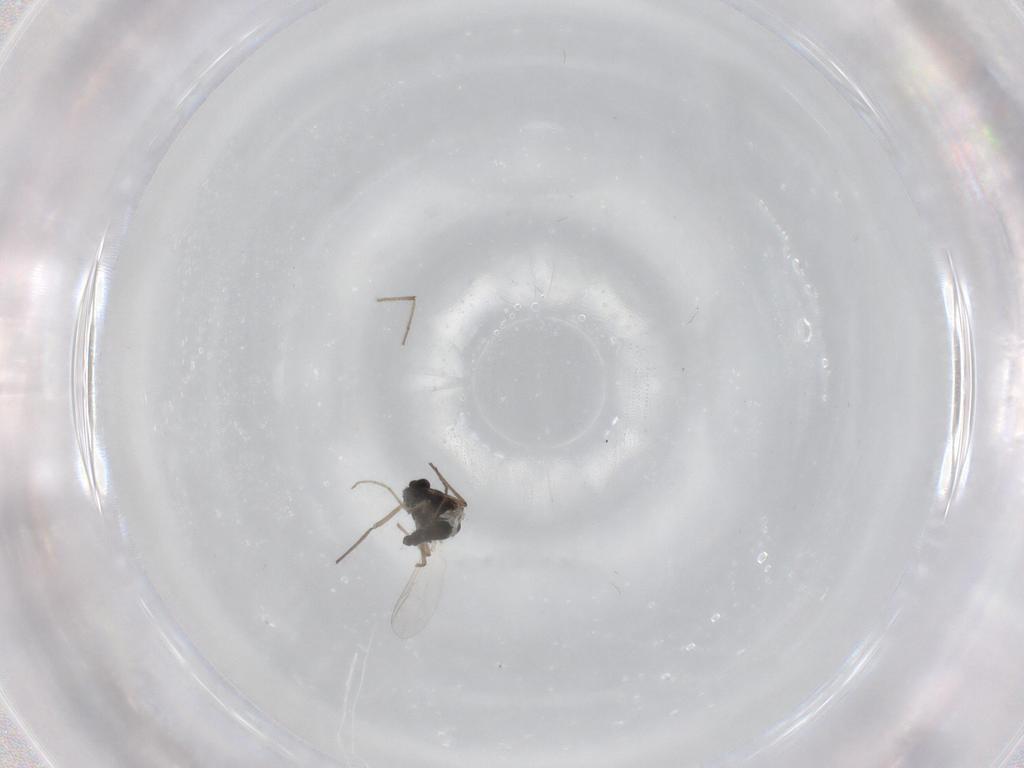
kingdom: Animalia
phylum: Arthropoda
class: Insecta
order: Diptera
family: Chironomidae
